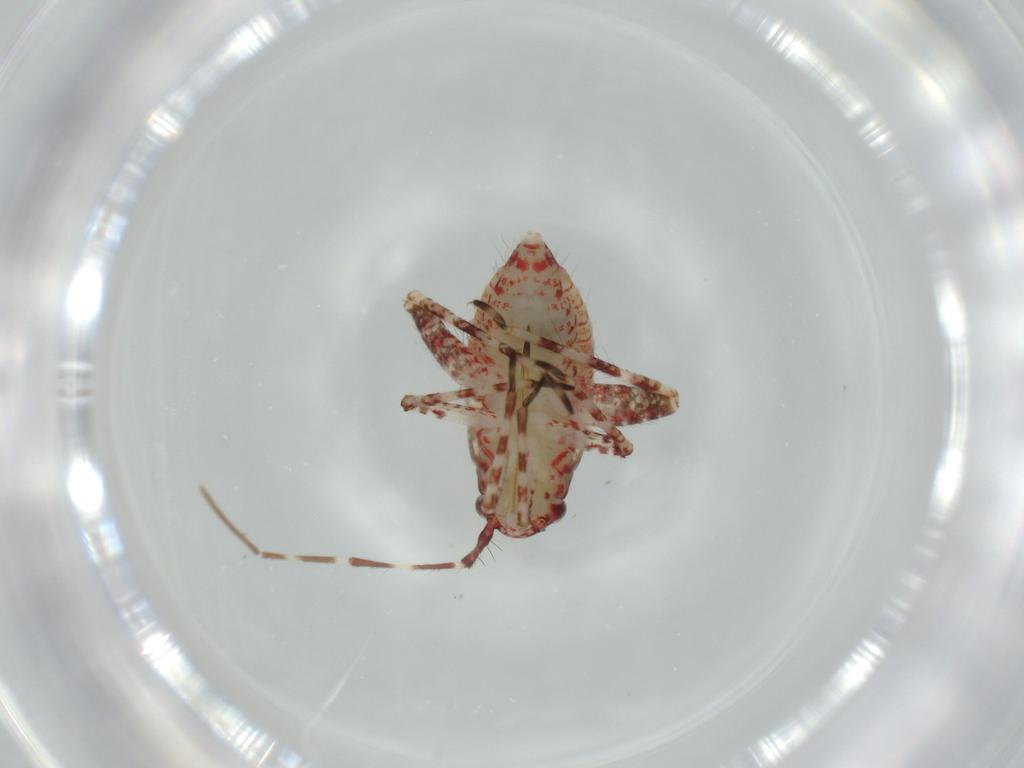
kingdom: Animalia
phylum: Arthropoda
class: Insecta
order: Hemiptera
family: Miridae
